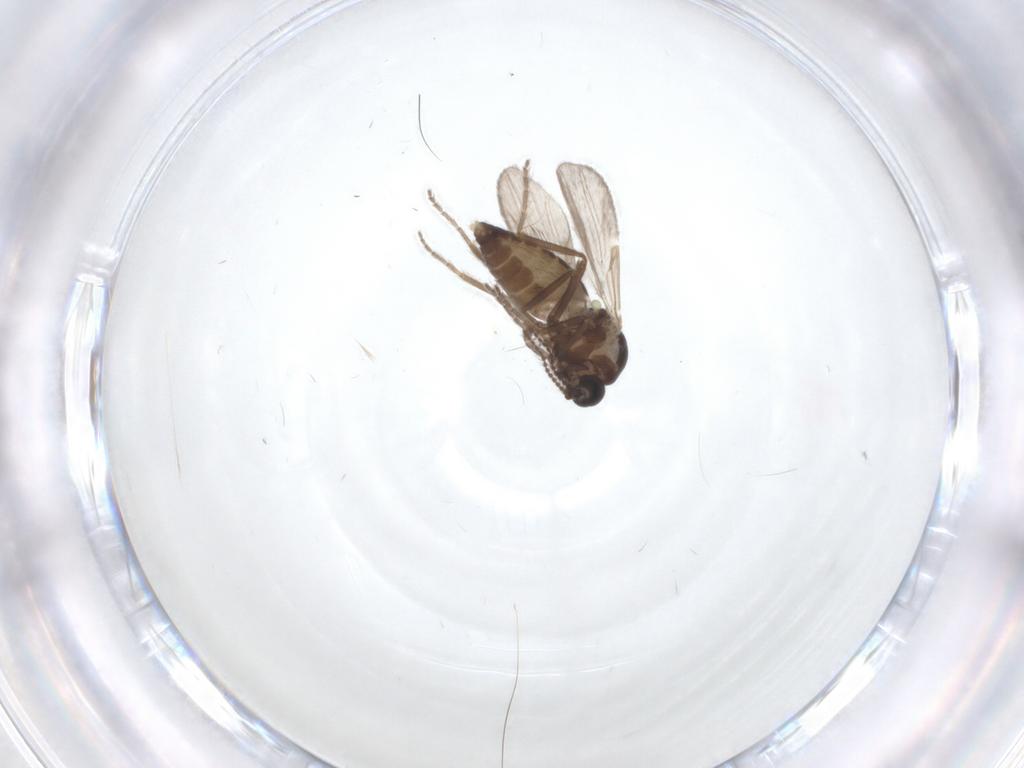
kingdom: Animalia
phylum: Arthropoda
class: Insecta
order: Diptera
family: Ceratopogonidae
